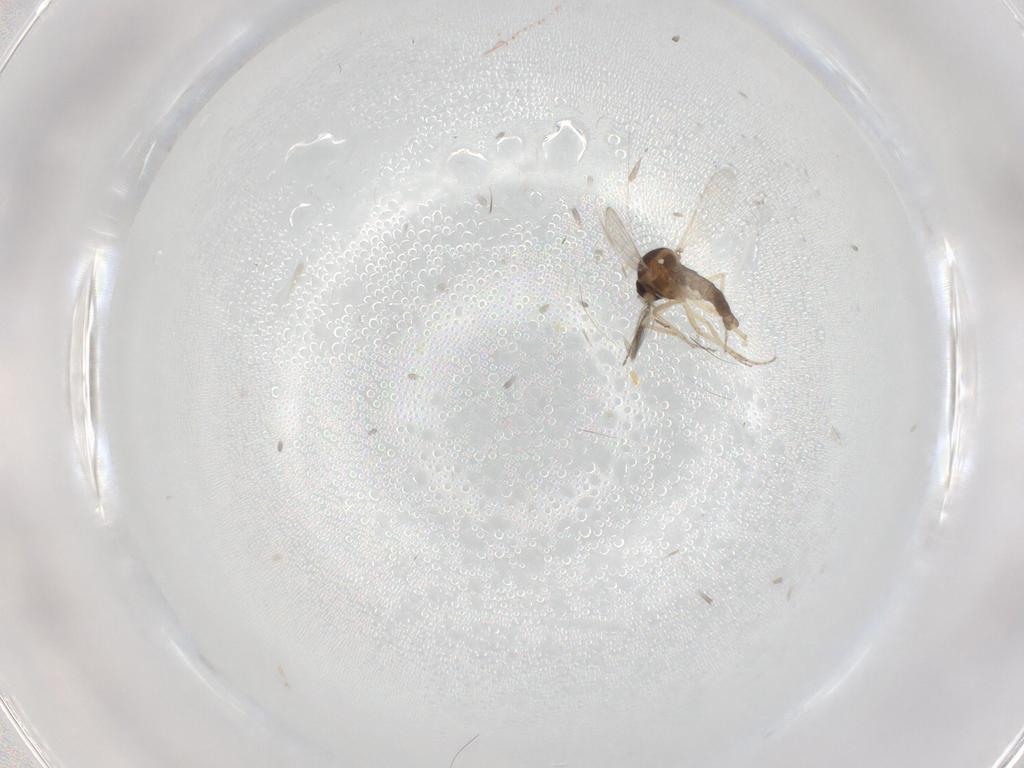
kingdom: Animalia
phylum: Arthropoda
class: Insecta
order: Diptera
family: Ceratopogonidae
